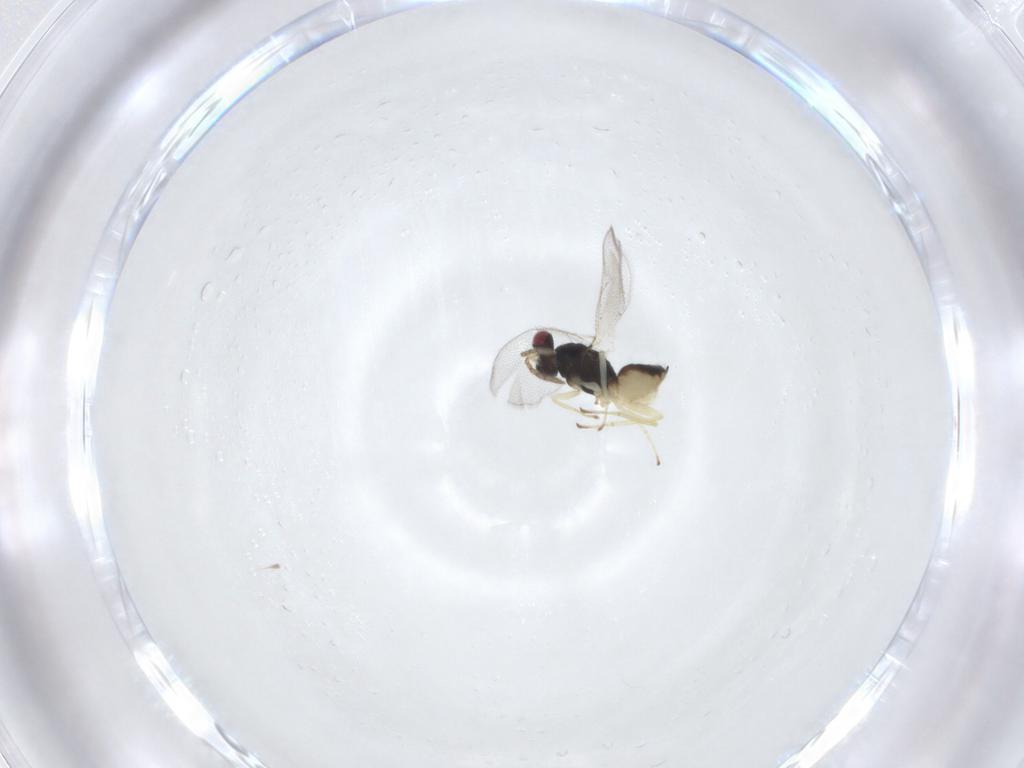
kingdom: Animalia
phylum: Arthropoda
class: Insecta
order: Hymenoptera
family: Eulophidae
